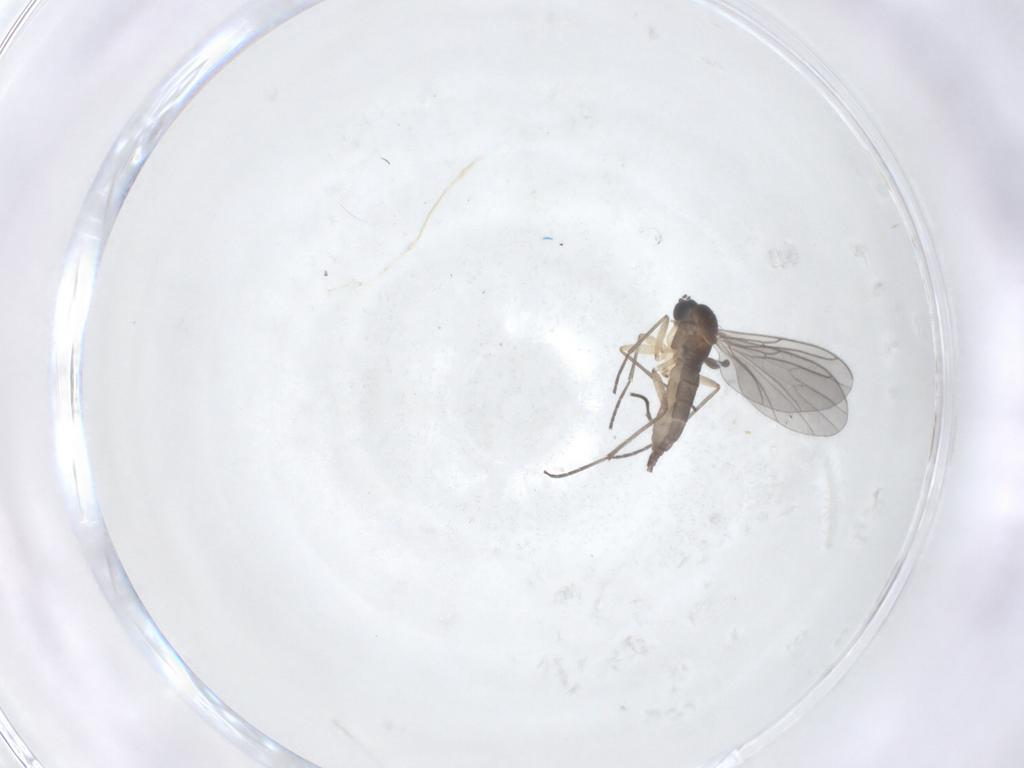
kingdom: Animalia
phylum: Arthropoda
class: Insecta
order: Diptera
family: Sciaridae
